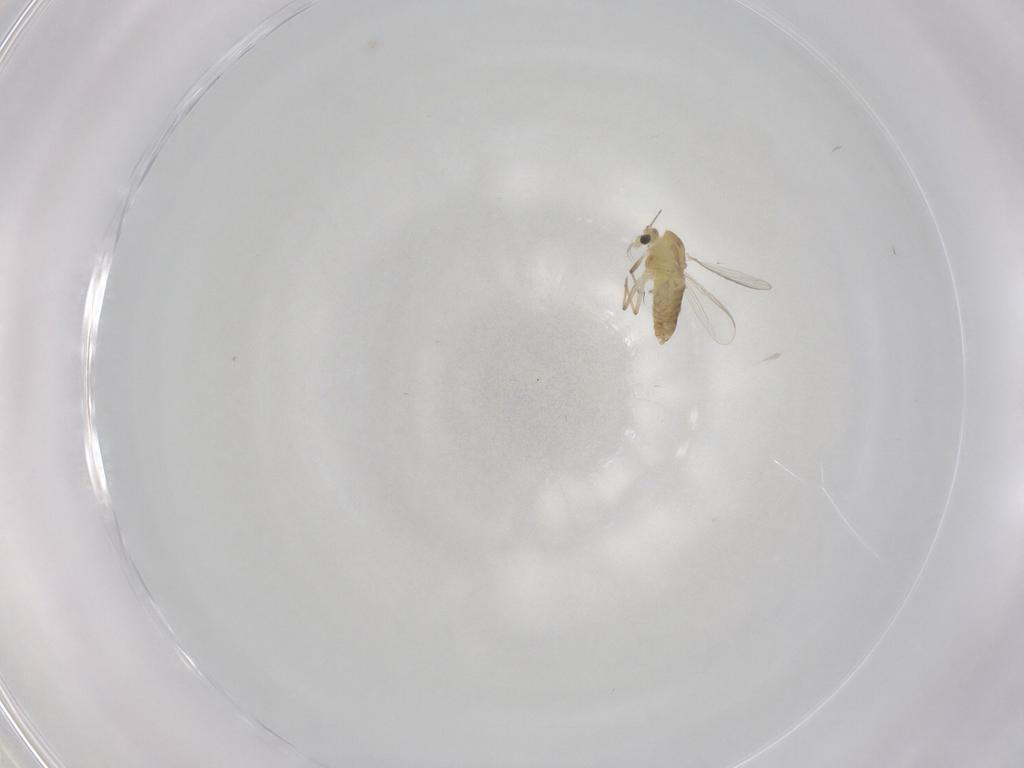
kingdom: Animalia
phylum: Arthropoda
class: Insecta
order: Diptera
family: Chironomidae
